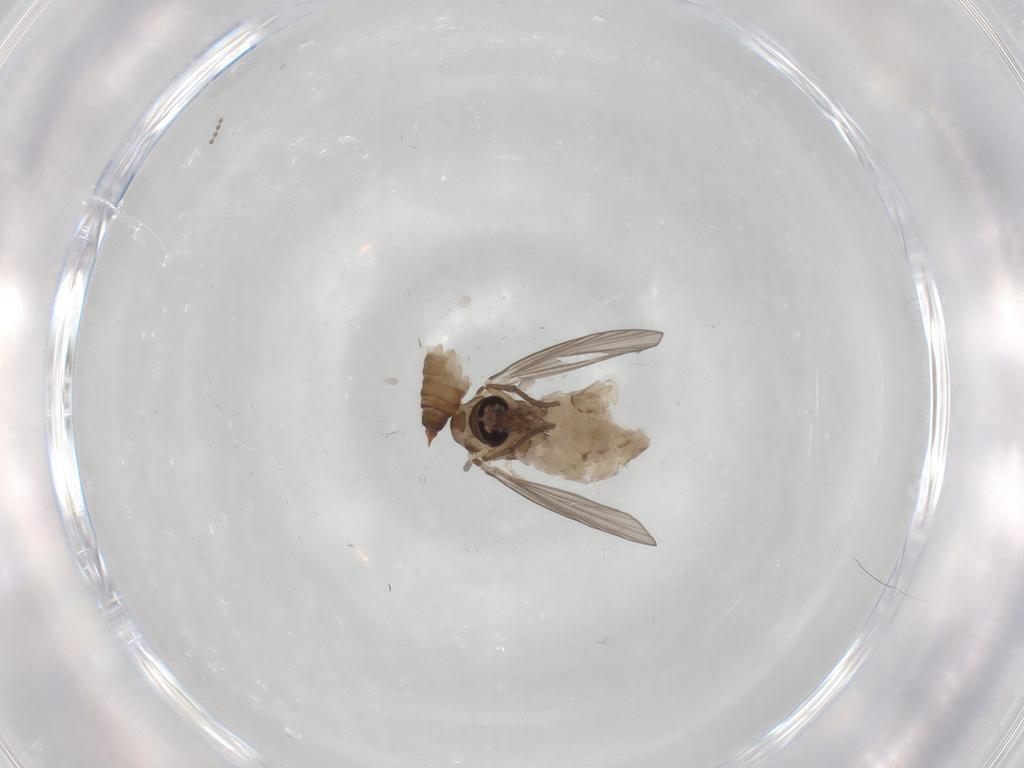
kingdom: Animalia
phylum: Arthropoda
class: Insecta
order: Diptera
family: Psychodidae
